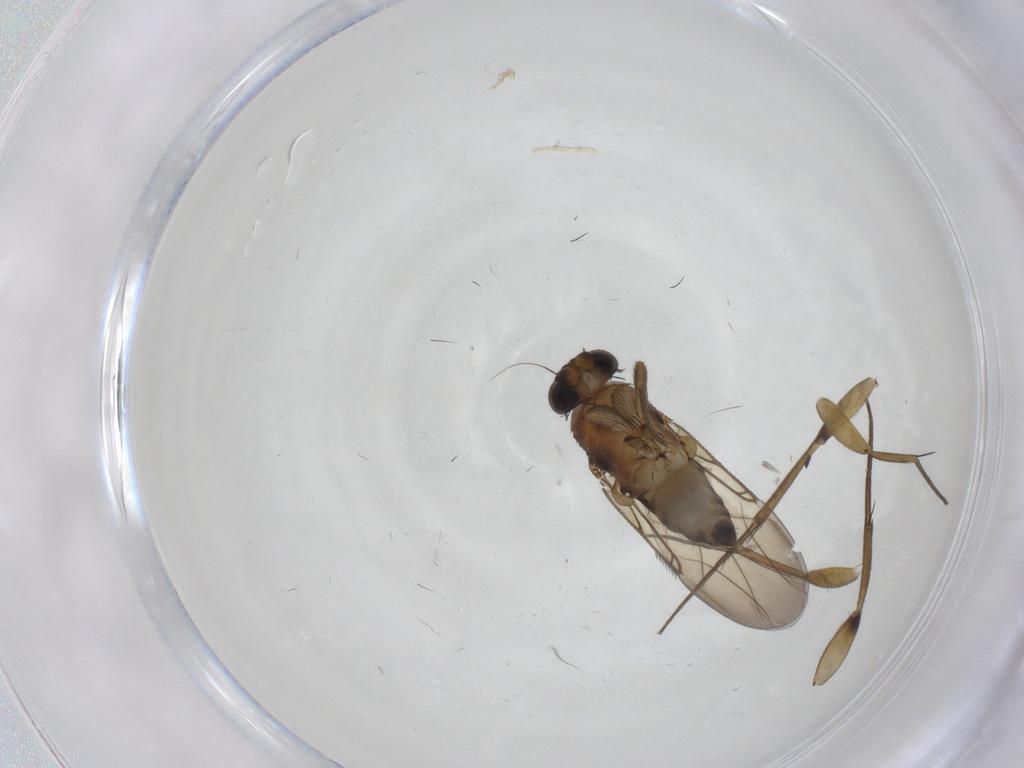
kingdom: Animalia
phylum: Arthropoda
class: Insecta
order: Diptera
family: Phoridae
